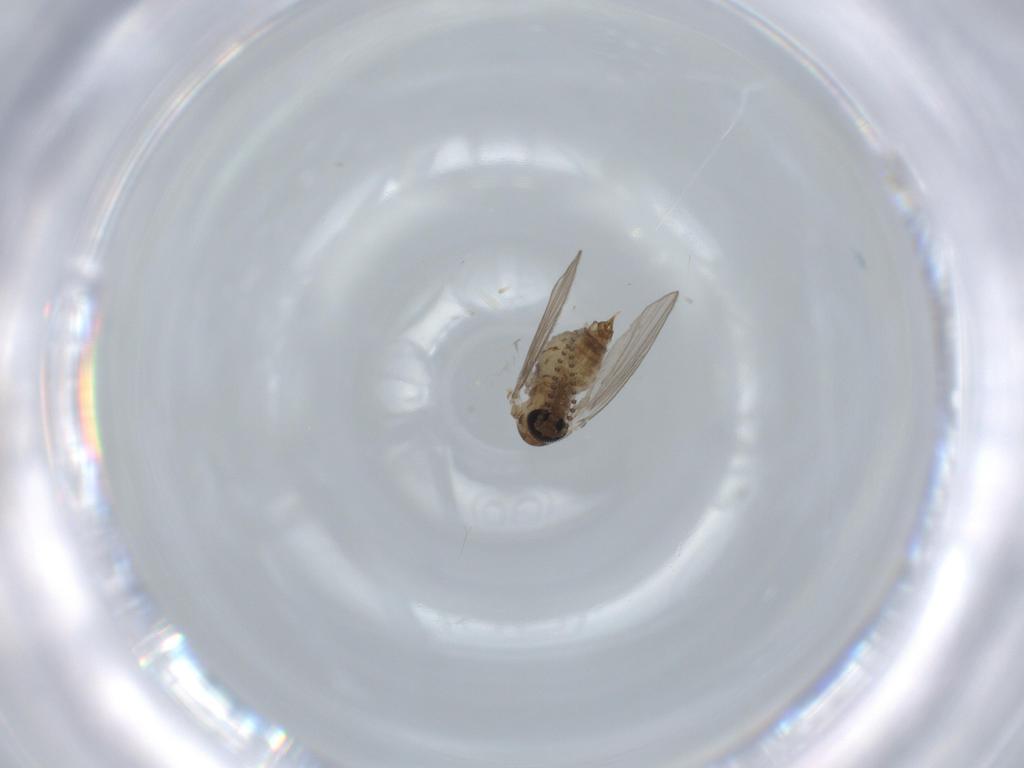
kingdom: Animalia
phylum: Arthropoda
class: Insecta
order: Diptera
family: Psychodidae
